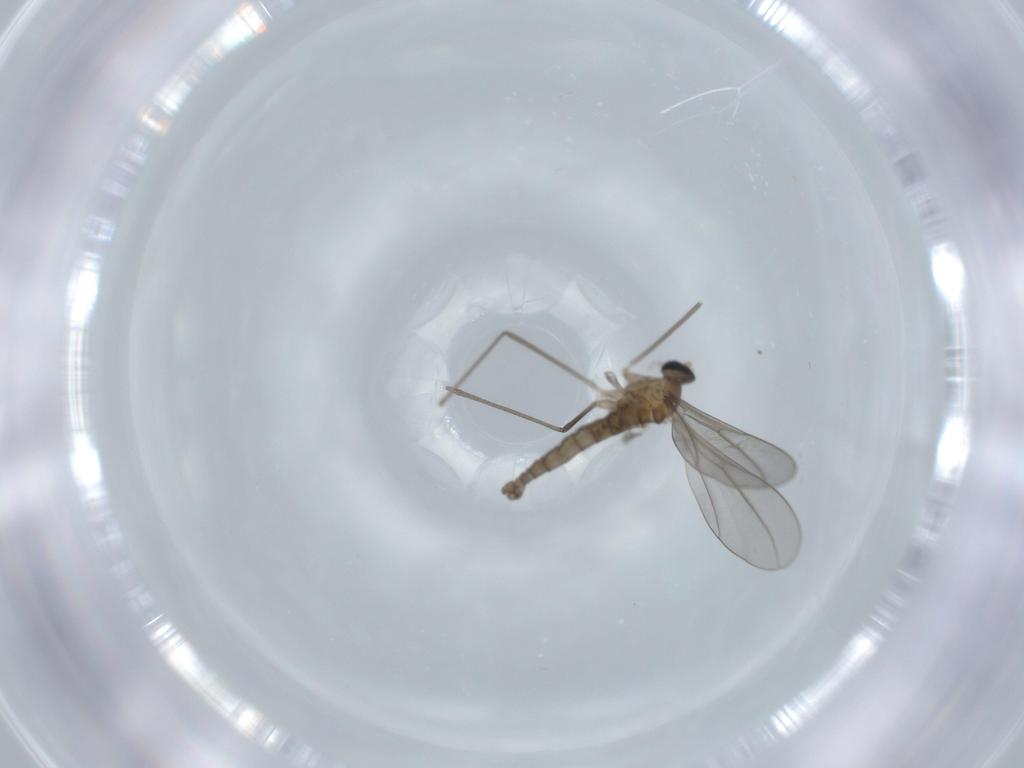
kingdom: Animalia
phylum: Arthropoda
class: Insecta
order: Diptera
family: Cecidomyiidae
